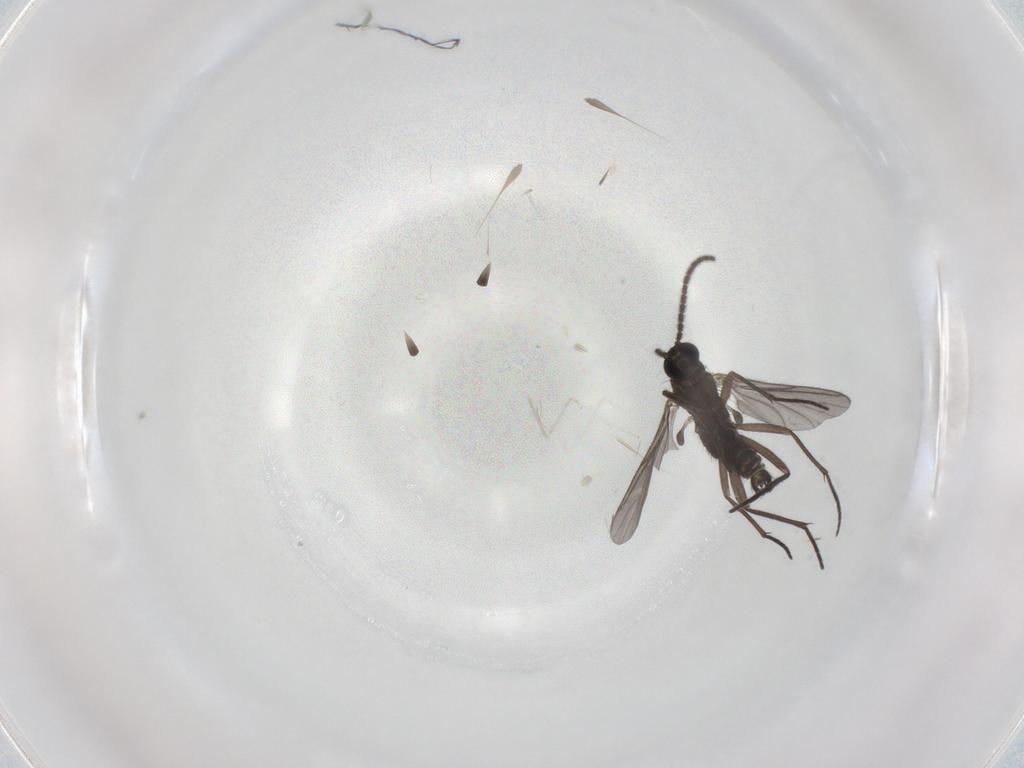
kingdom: Animalia
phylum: Arthropoda
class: Insecta
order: Diptera
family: Sciaridae
